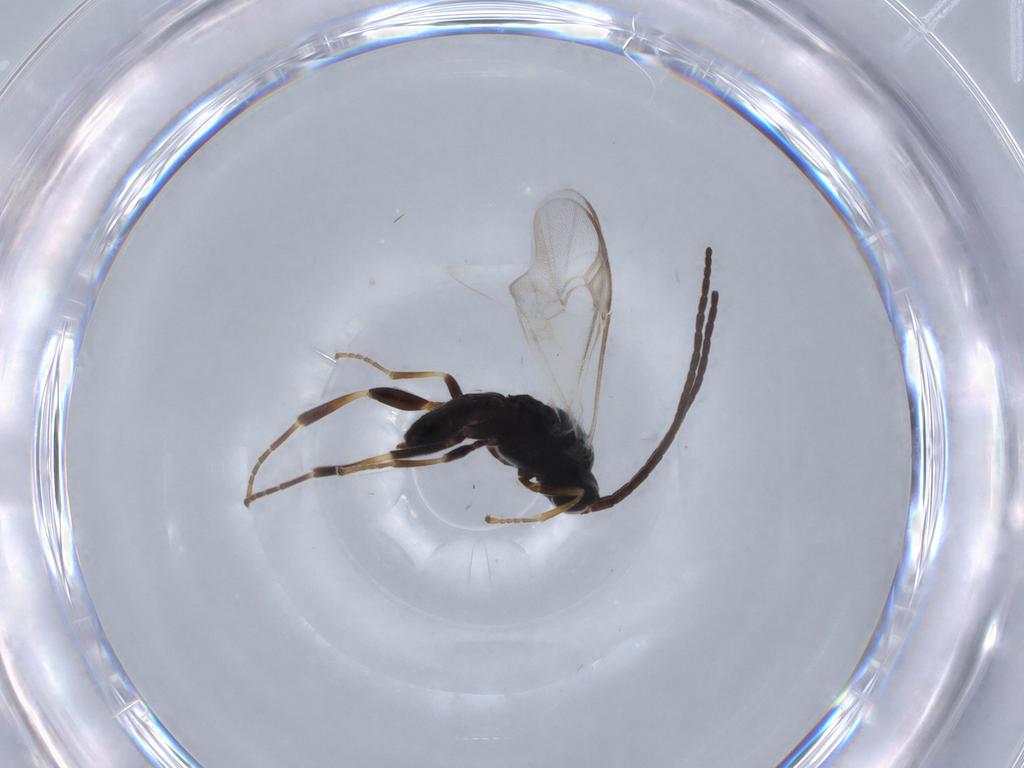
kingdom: Animalia
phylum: Arthropoda
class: Insecta
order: Hymenoptera
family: Braconidae
